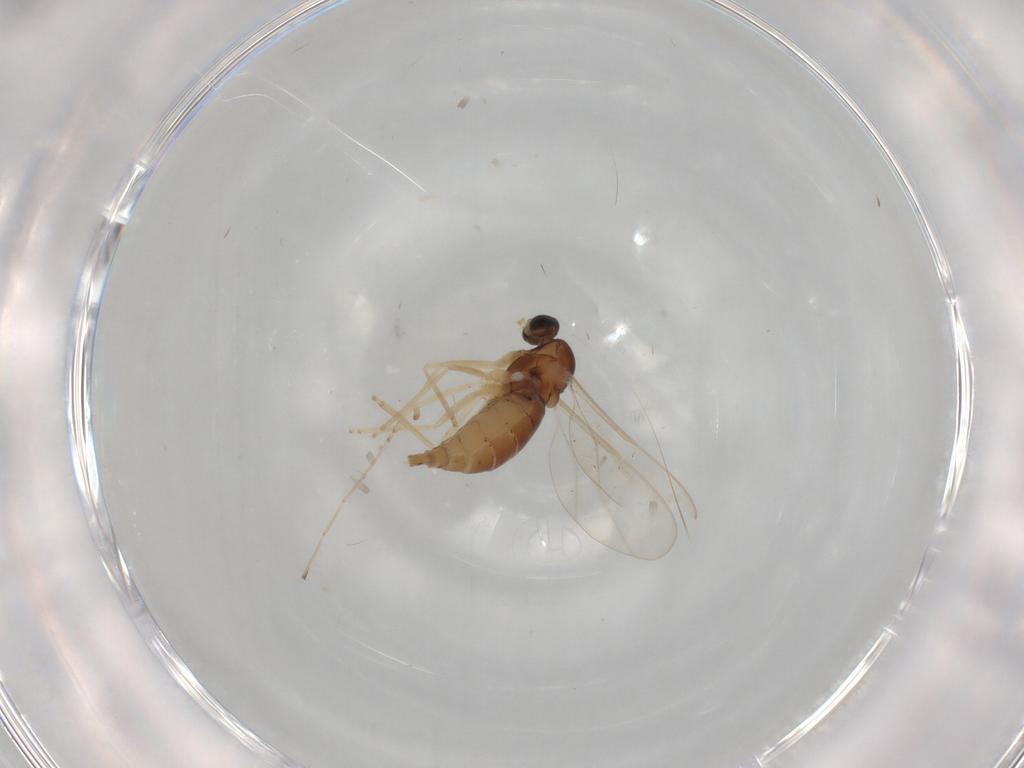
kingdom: Animalia
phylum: Arthropoda
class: Insecta
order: Diptera
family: Cecidomyiidae
